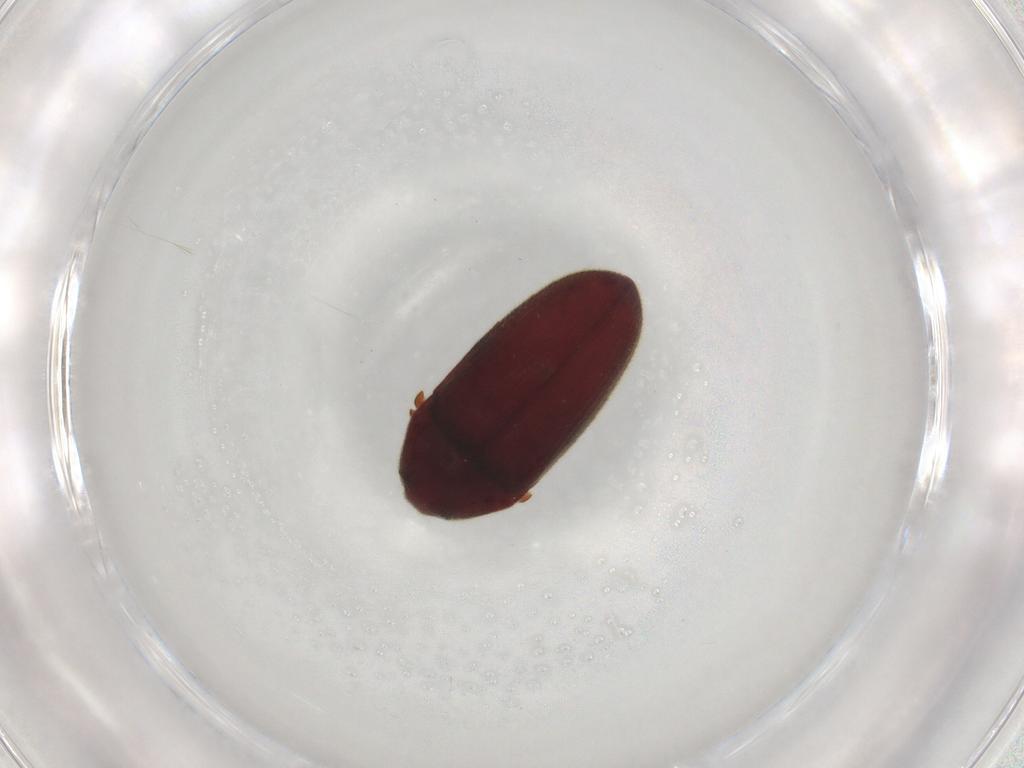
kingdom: Animalia
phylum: Arthropoda
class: Insecta
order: Coleoptera
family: Throscidae
